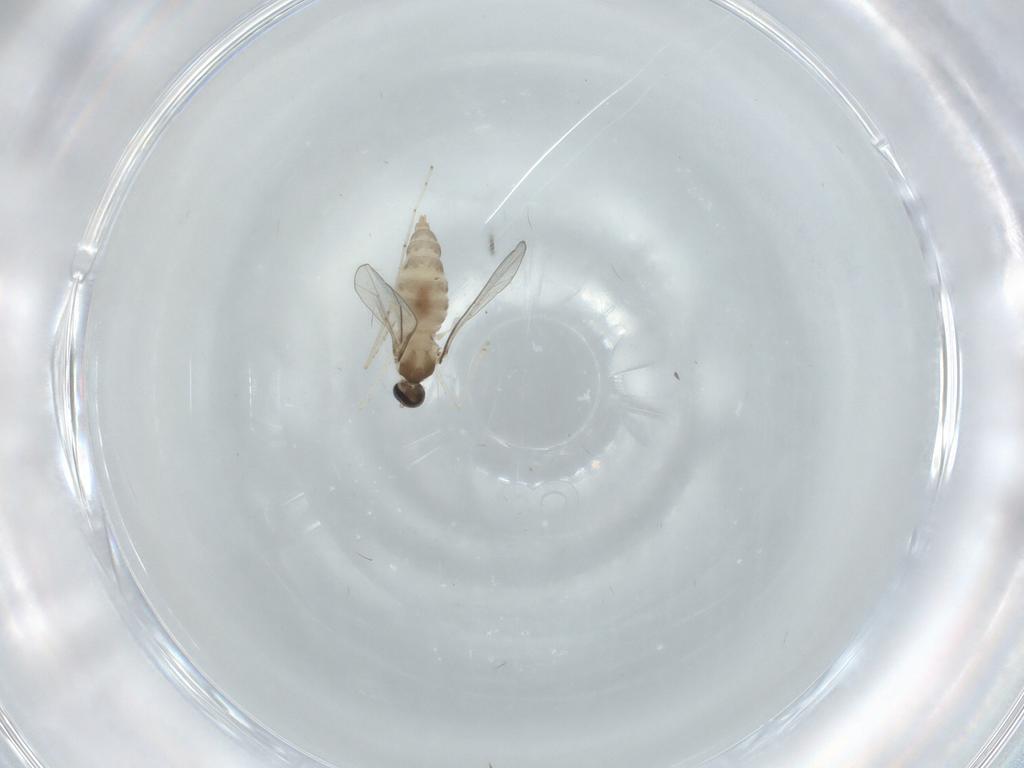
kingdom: Animalia
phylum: Arthropoda
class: Insecta
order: Diptera
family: Cecidomyiidae
